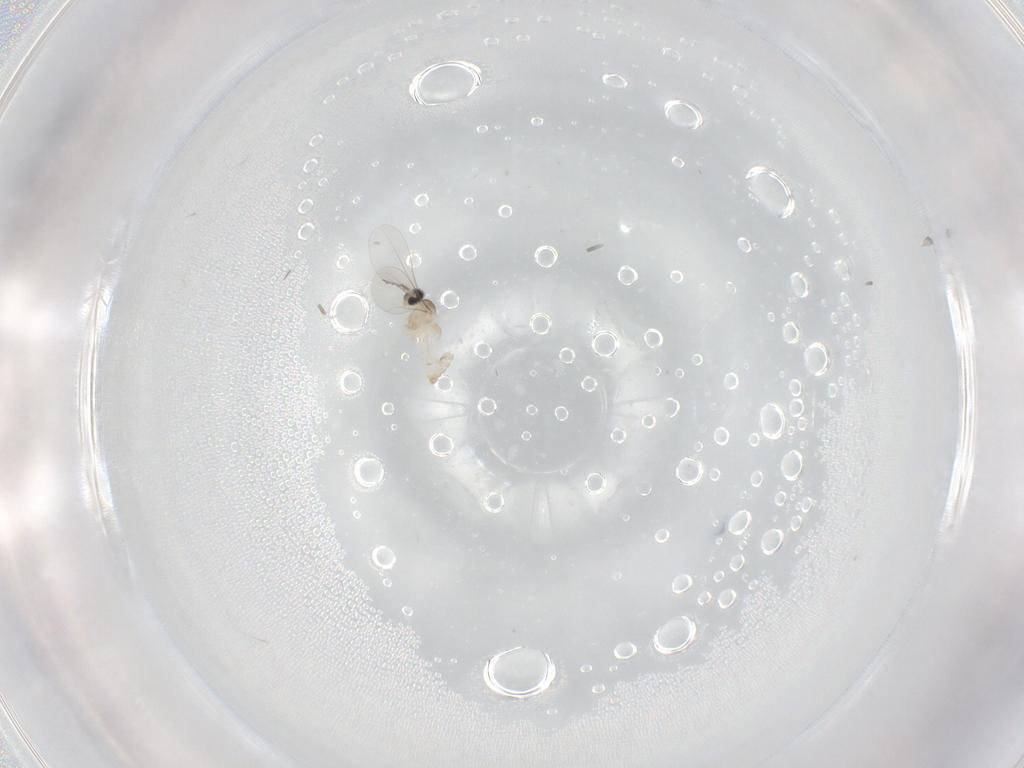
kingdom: Animalia
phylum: Arthropoda
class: Insecta
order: Diptera
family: Cecidomyiidae
